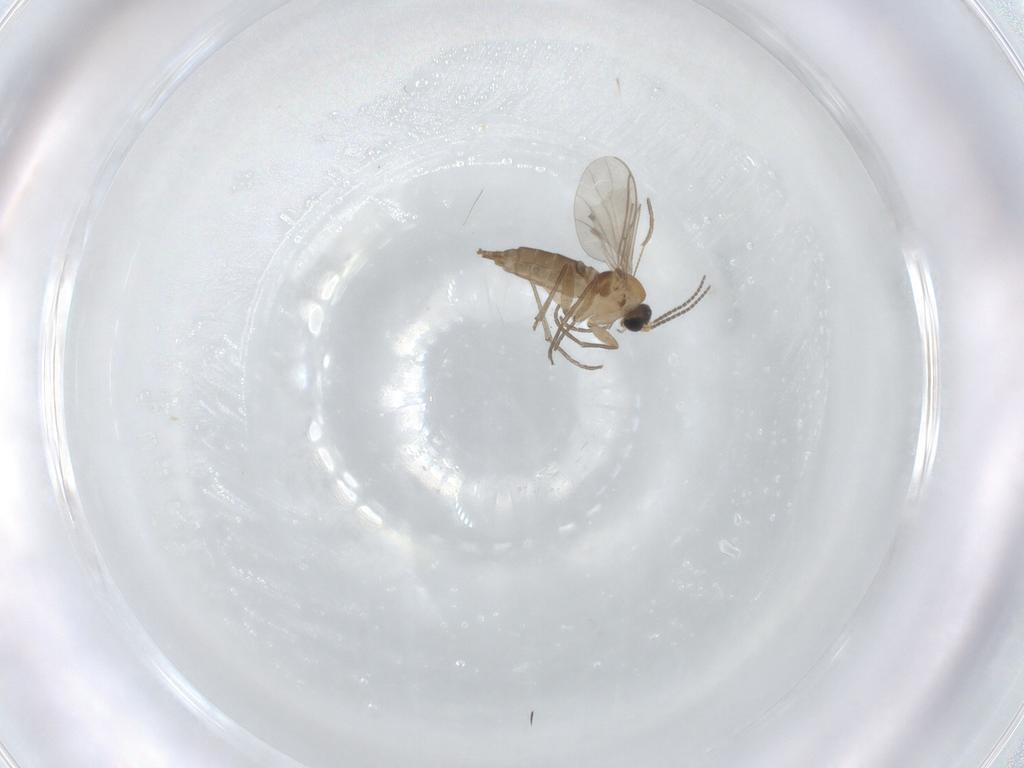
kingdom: Animalia
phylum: Arthropoda
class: Insecta
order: Diptera
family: Sciaridae
